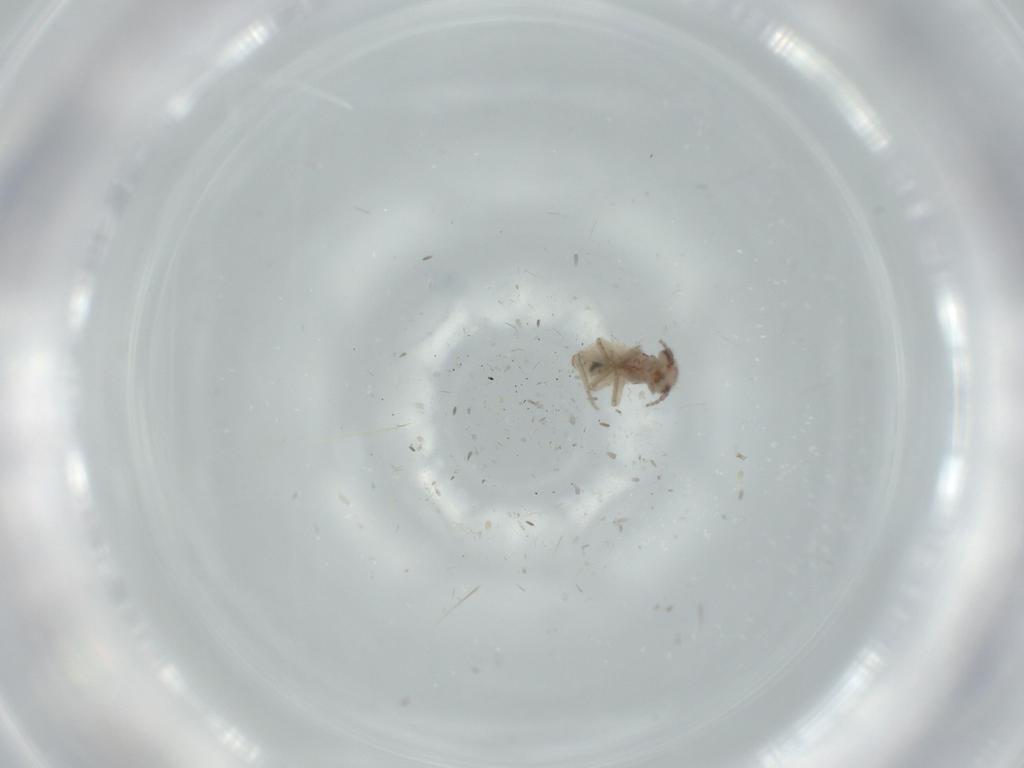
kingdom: Animalia
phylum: Arthropoda
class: Insecta
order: Psocodea
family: Lepidopsocidae
